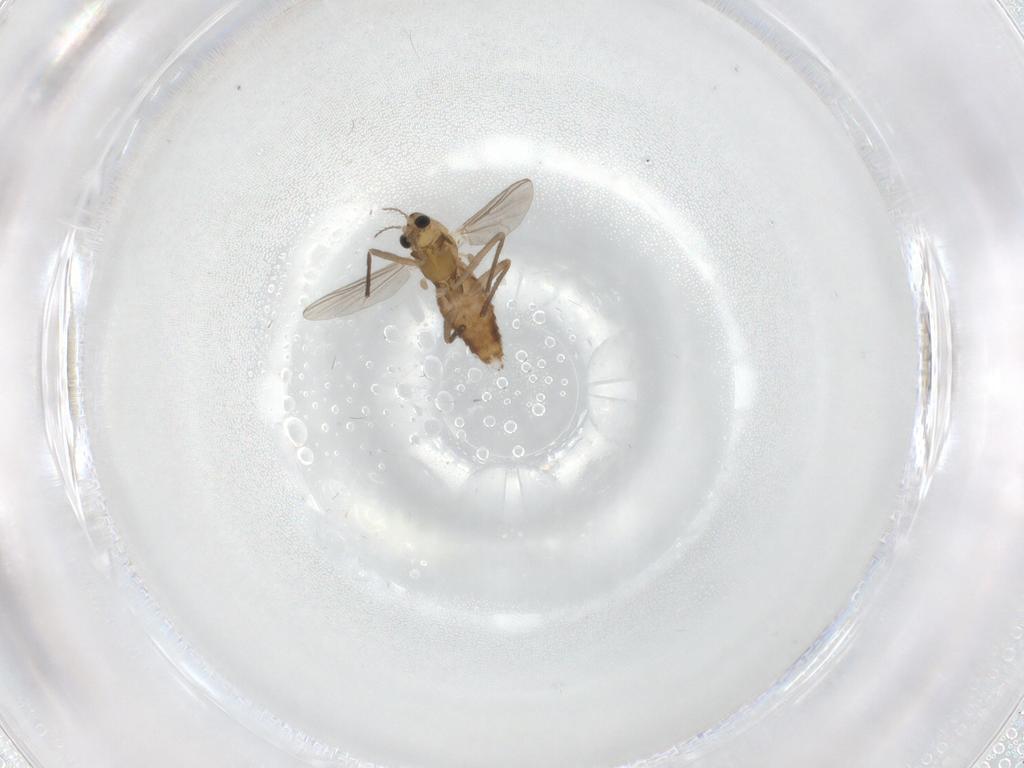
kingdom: Animalia
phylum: Arthropoda
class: Insecta
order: Diptera
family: Chironomidae
